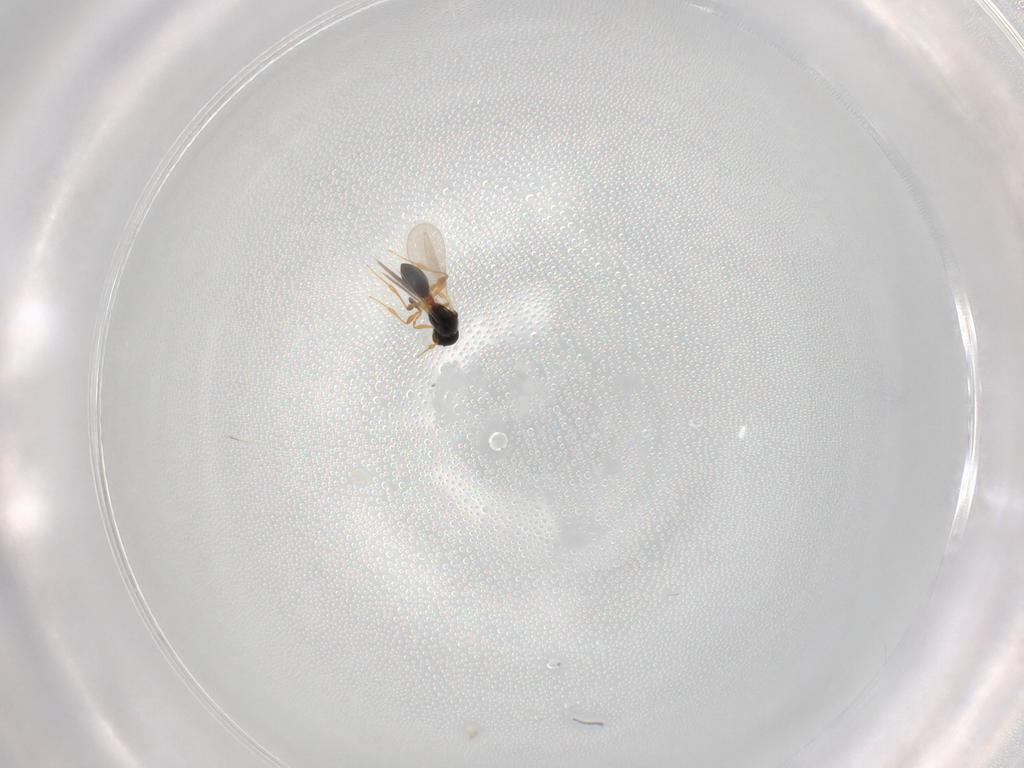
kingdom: Animalia
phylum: Arthropoda
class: Insecta
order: Hymenoptera
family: Platygastridae
